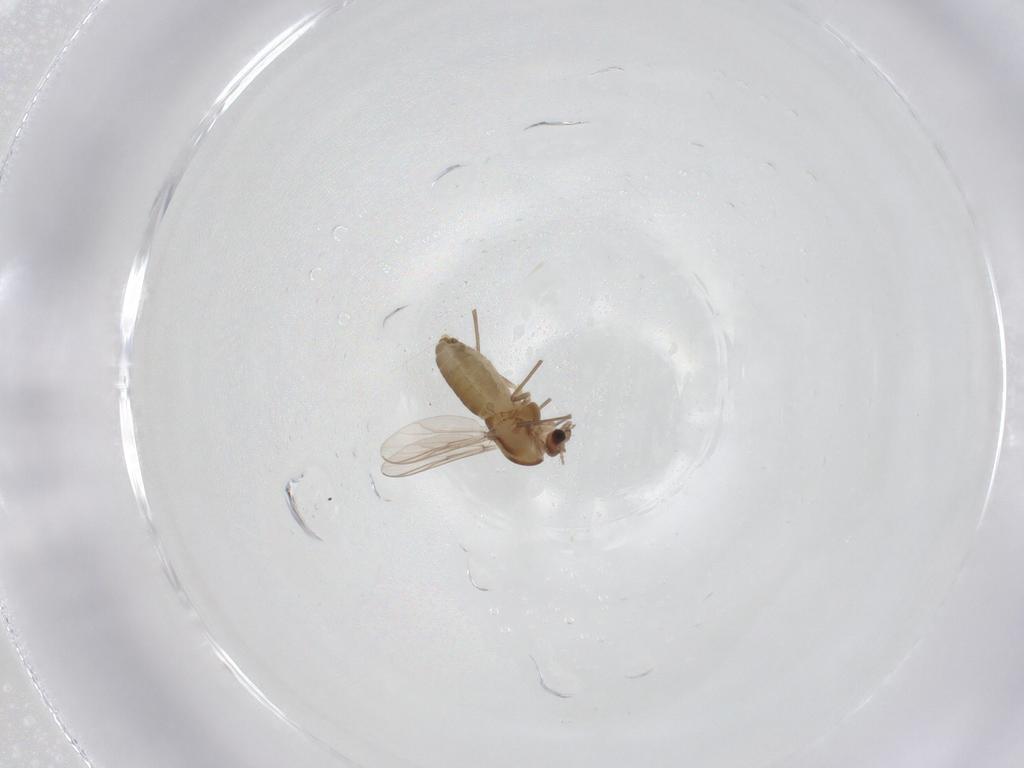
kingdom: Animalia
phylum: Arthropoda
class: Insecta
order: Diptera
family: Chironomidae
